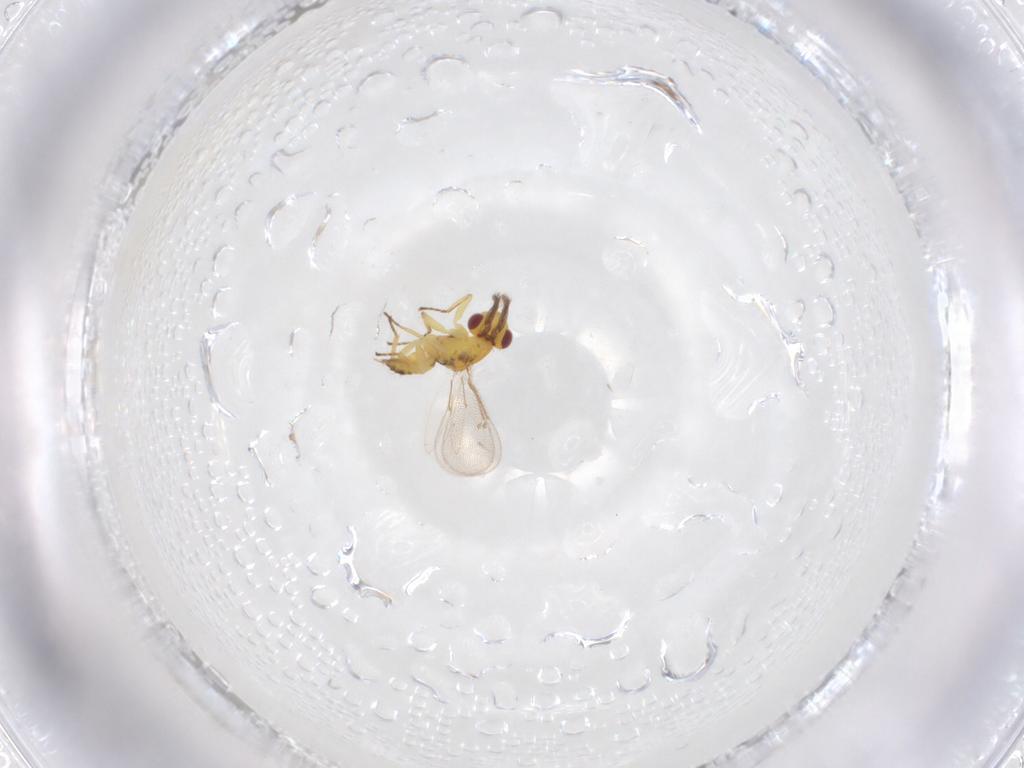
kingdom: Animalia
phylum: Arthropoda
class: Insecta
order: Hymenoptera
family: Eulophidae
